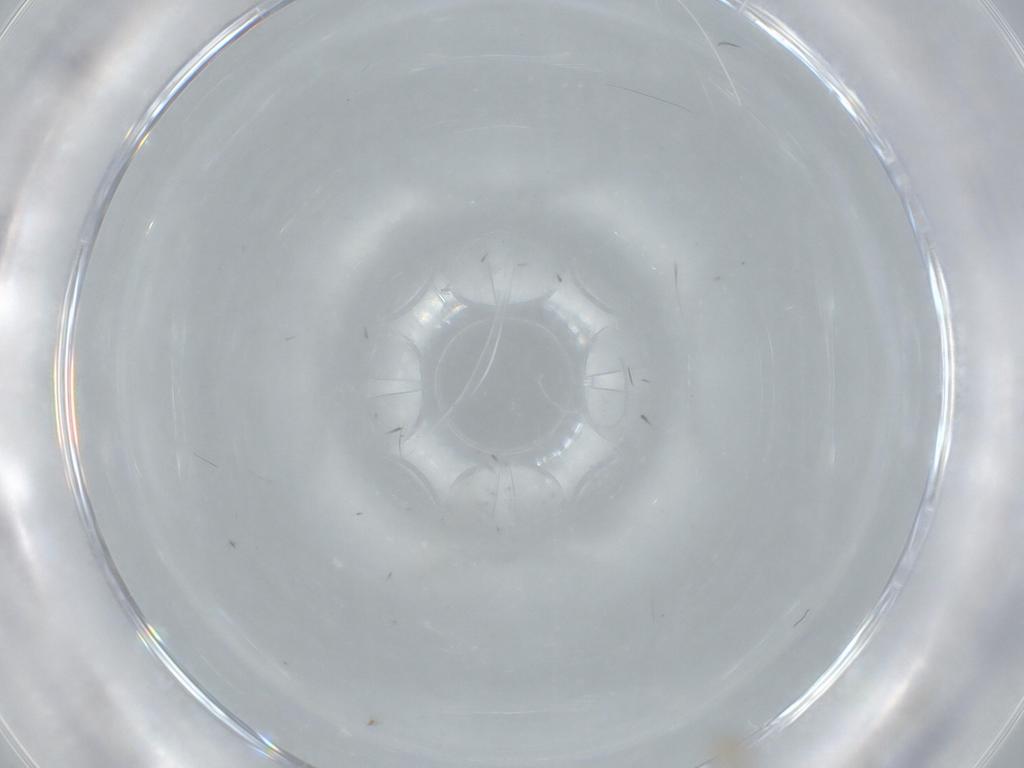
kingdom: Animalia
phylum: Arthropoda
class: Insecta
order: Blattodea
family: Ectobiidae
